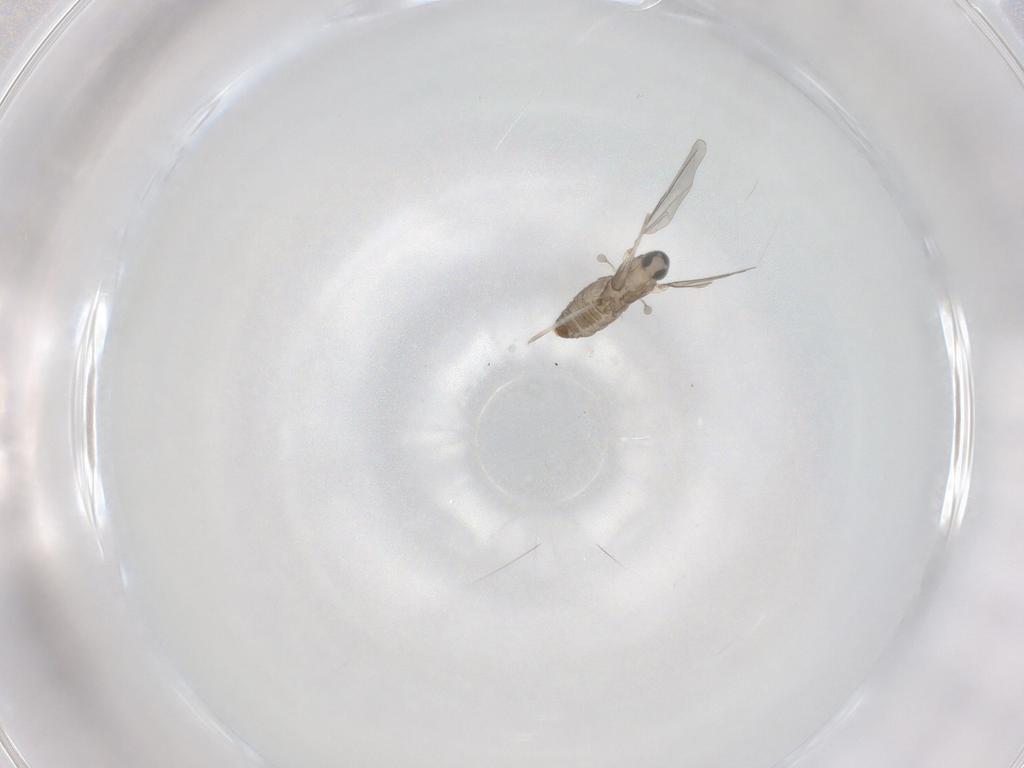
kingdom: Animalia
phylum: Arthropoda
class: Insecta
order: Diptera
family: Cecidomyiidae
